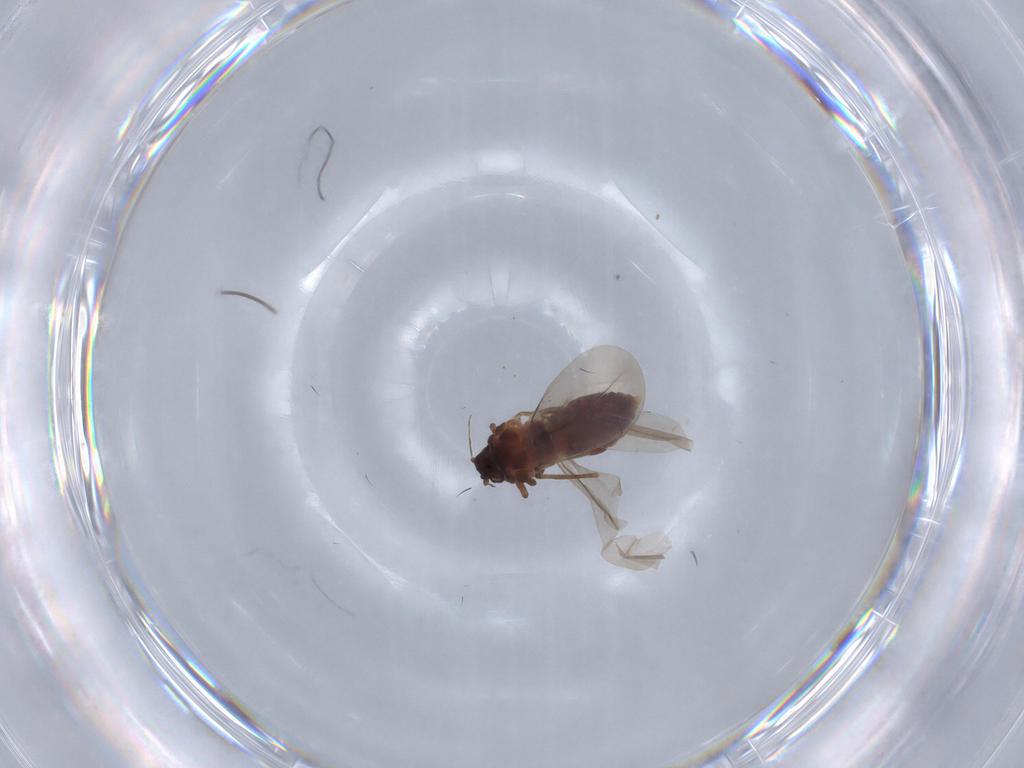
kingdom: Animalia
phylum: Arthropoda
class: Insecta
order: Hemiptera
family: Aleyrodidae
